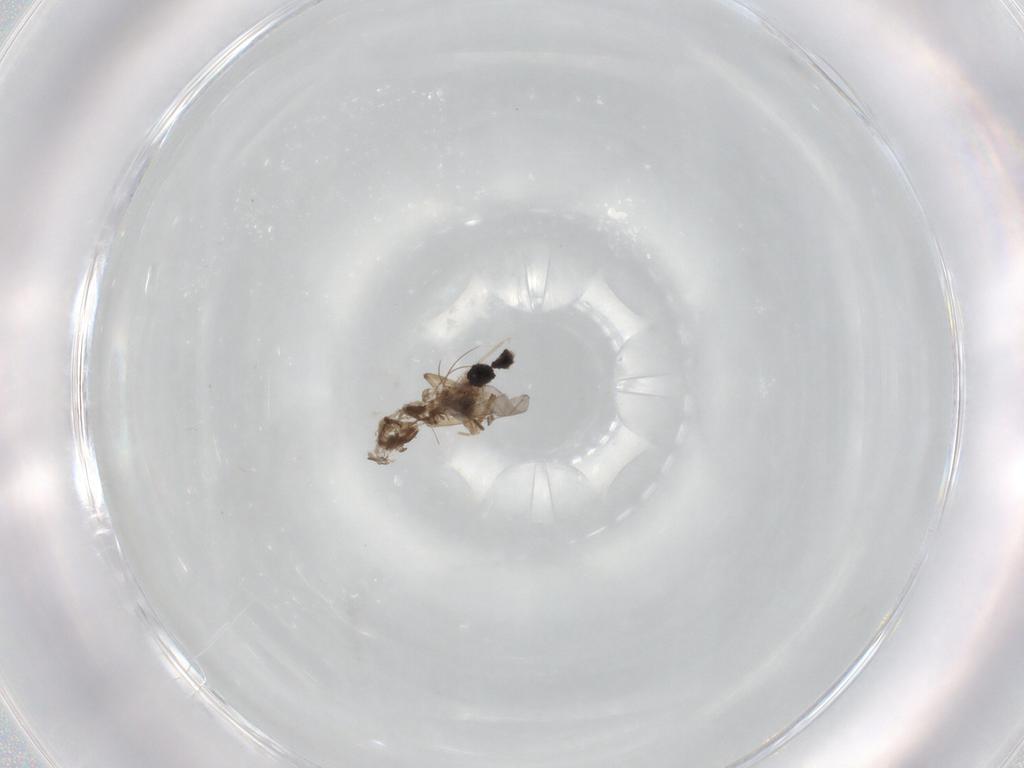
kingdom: Animalia
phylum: Arthropoda
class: Insecta
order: Diptera
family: Sciaridae
